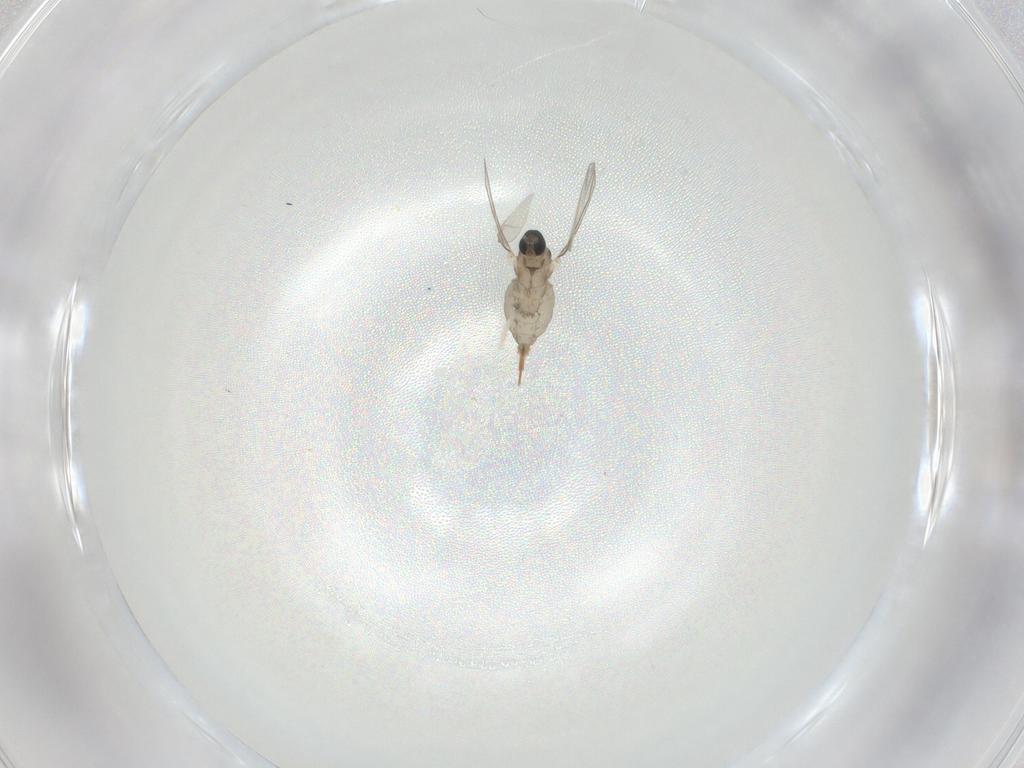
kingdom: Animalia
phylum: Arthropoda
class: Insecta
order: Diptera
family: Cecidomyiidae
